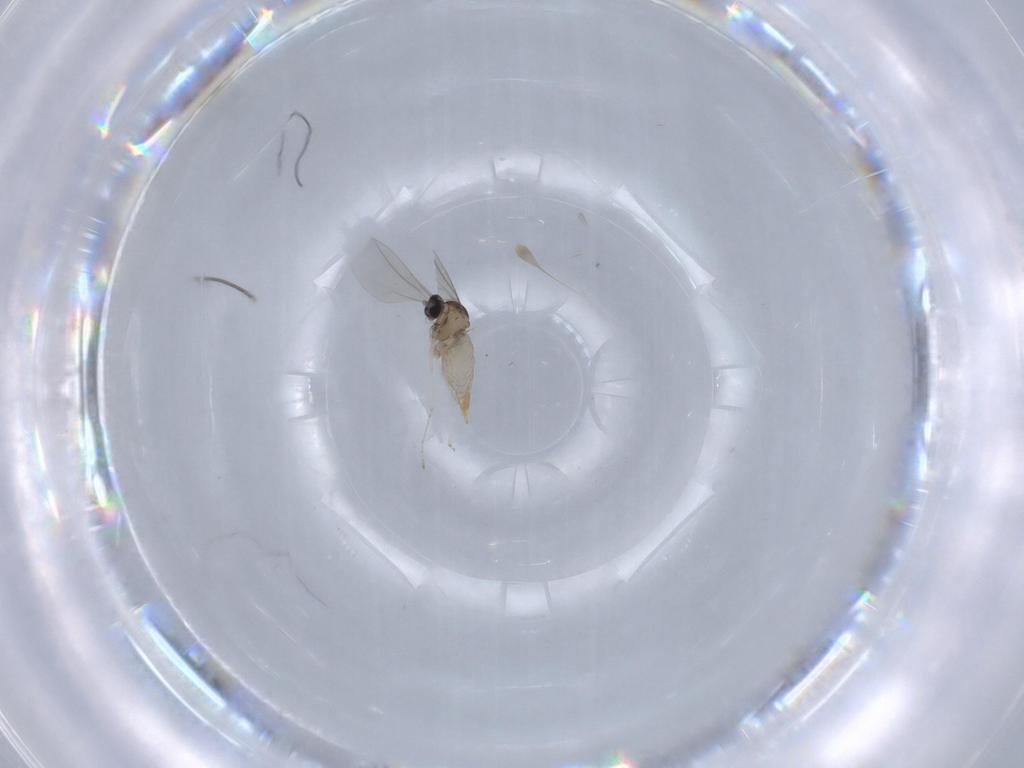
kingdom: Animalia
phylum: Arthropoda
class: Insecta
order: Diptera
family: Cecidomyiidae
